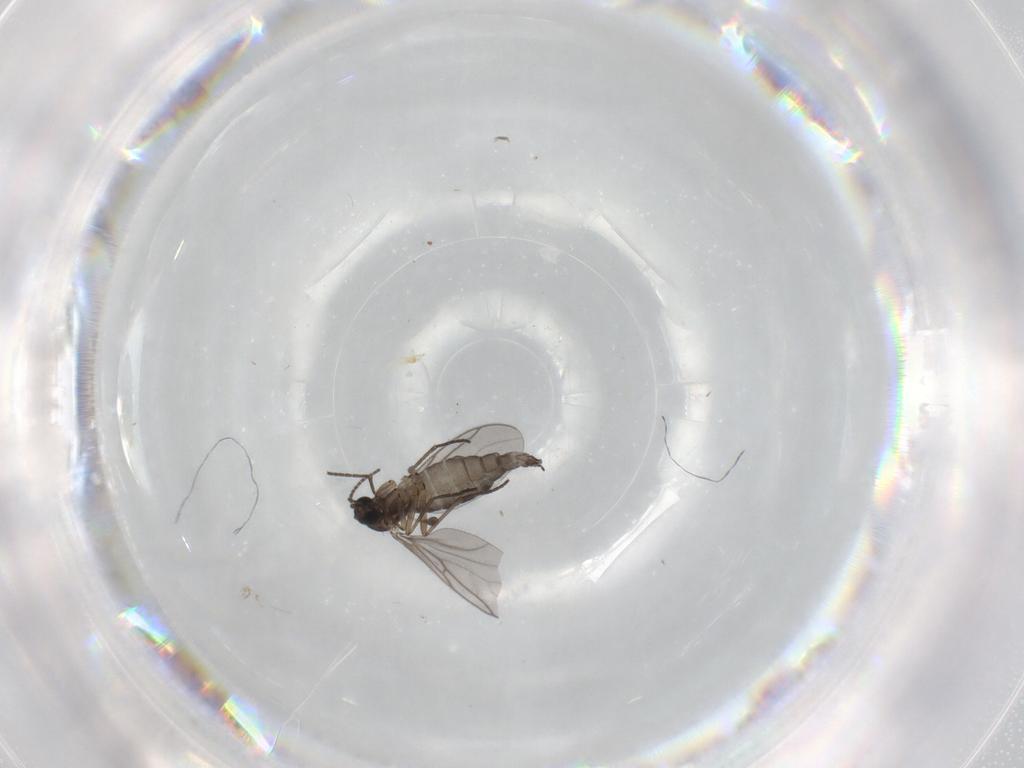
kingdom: Animalia
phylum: Arthropoda
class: Insecta
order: Diptera
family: Sciaridae
